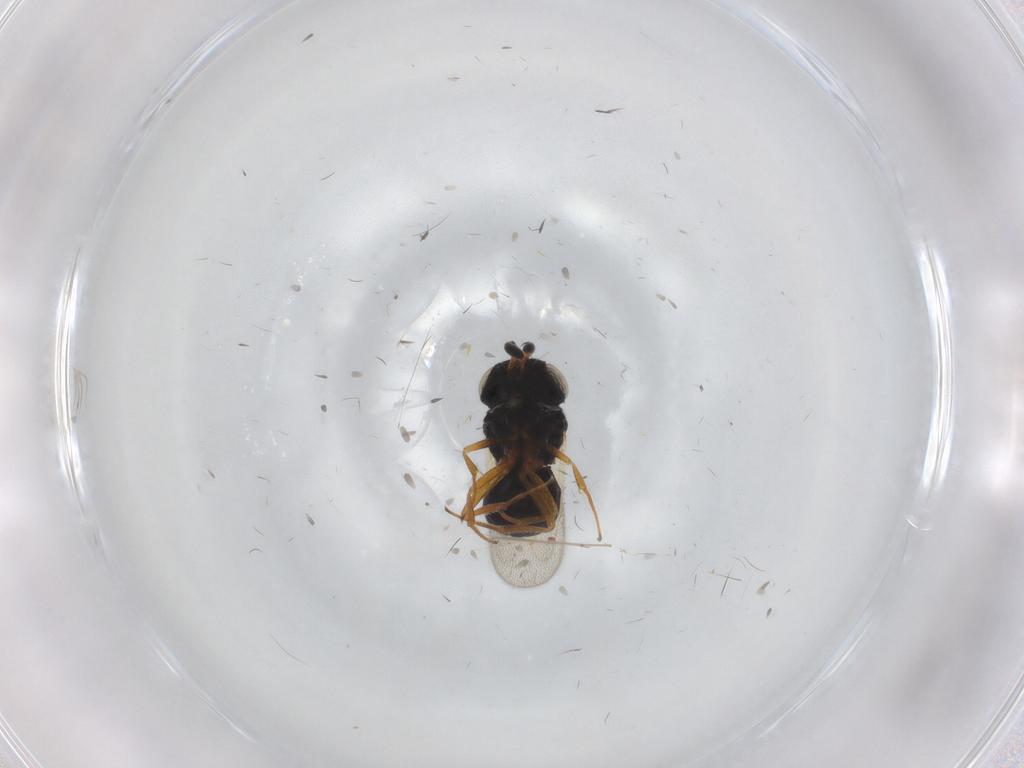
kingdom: Animalia
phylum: Arthropoda
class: Insecta
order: Hymenoptera
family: Scelionidae
